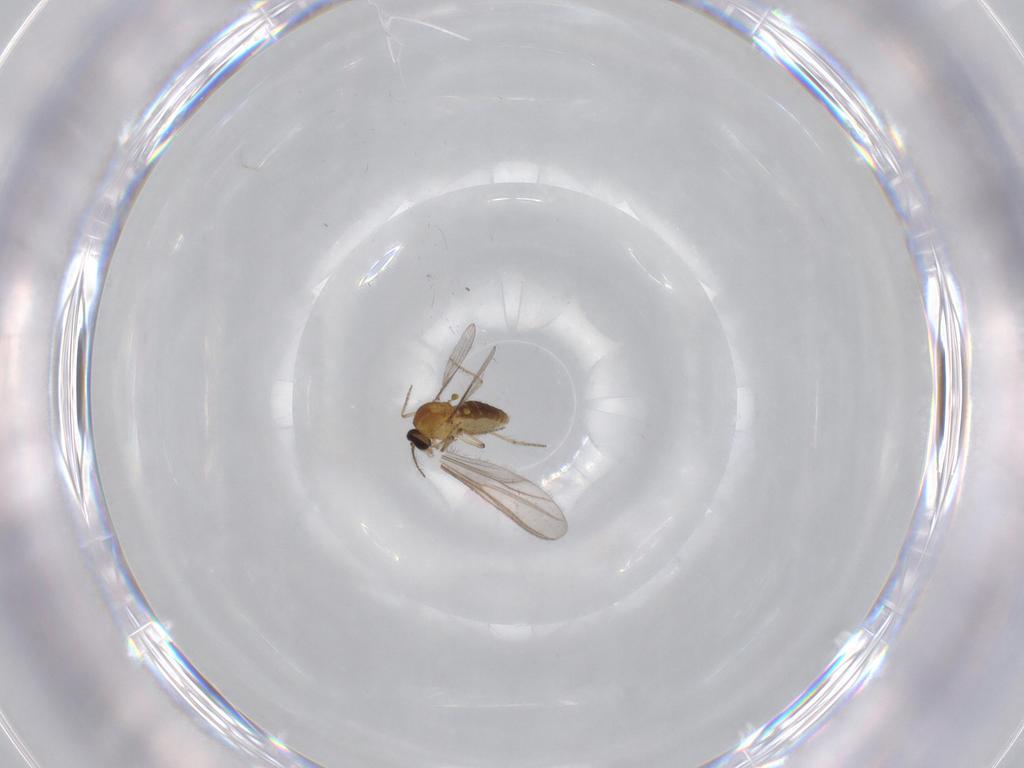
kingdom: Animalia
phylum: Arthropoda
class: Insecta
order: Diptera
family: Ceratopogonidae
